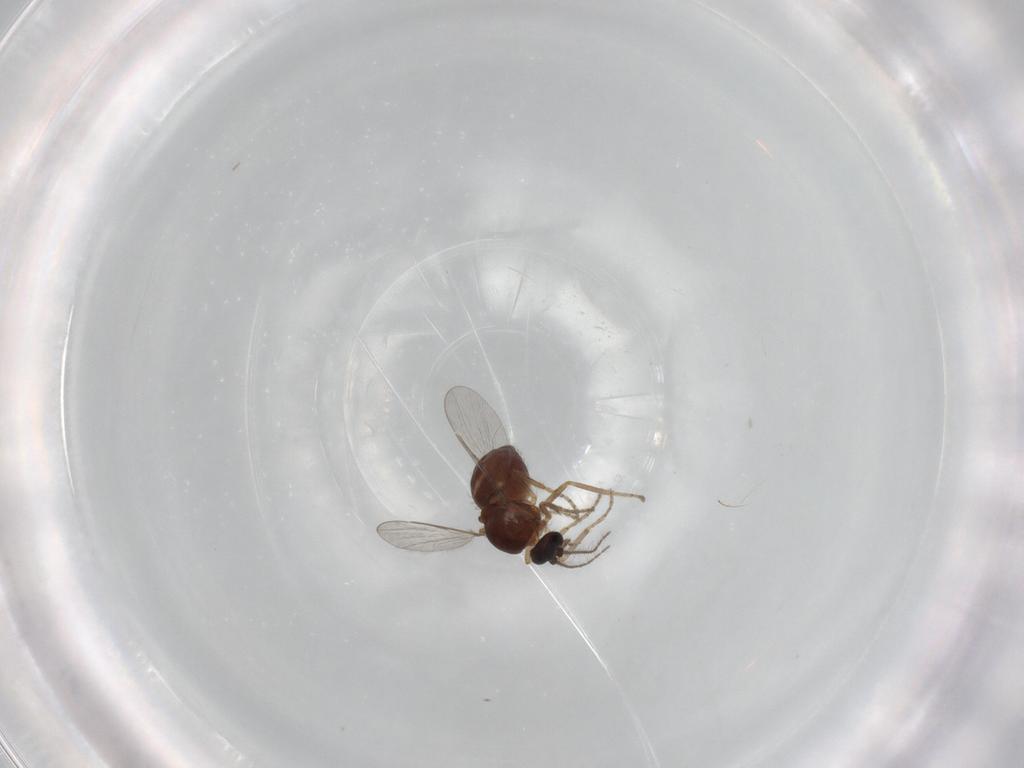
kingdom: Animalia
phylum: Arthropoda
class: Insecta
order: Diptera
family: Ceratopogonidae
